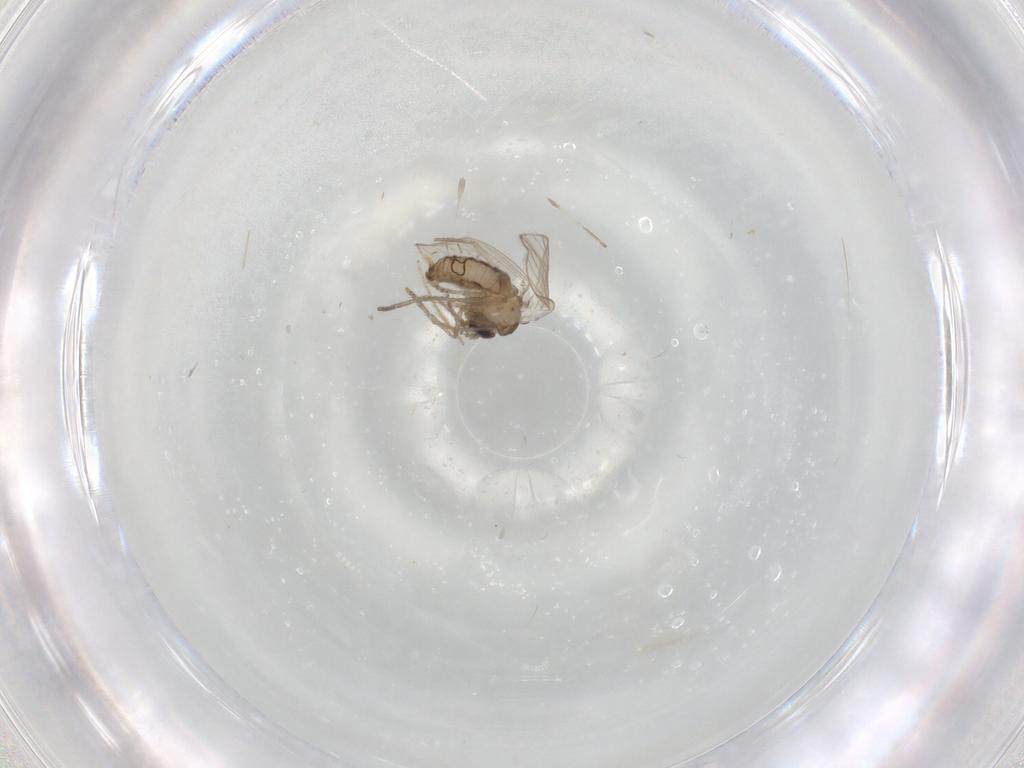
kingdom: Animalia
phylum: Arthropoda
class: Insecta
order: Diptera
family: Psychodidae
